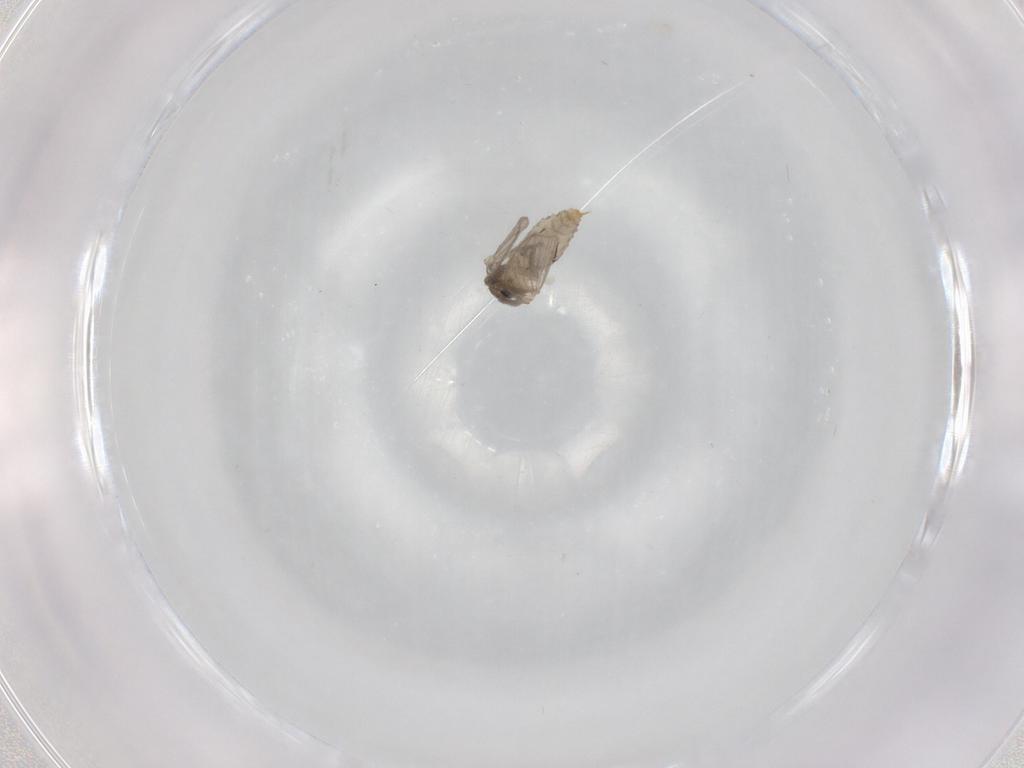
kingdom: Animalia
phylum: Arthropoda
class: Insecta
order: Diptera
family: Psychodidae
